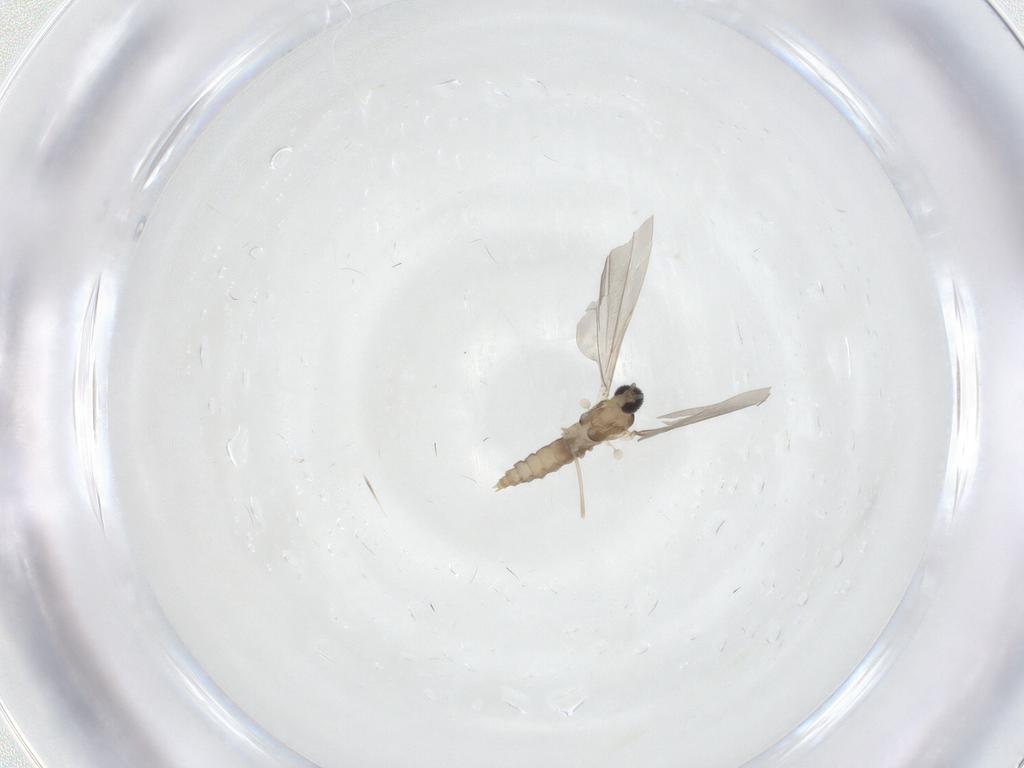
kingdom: Animalia
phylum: Arthropoda
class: Insecta
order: Diptera
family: Cecidomyiidae
